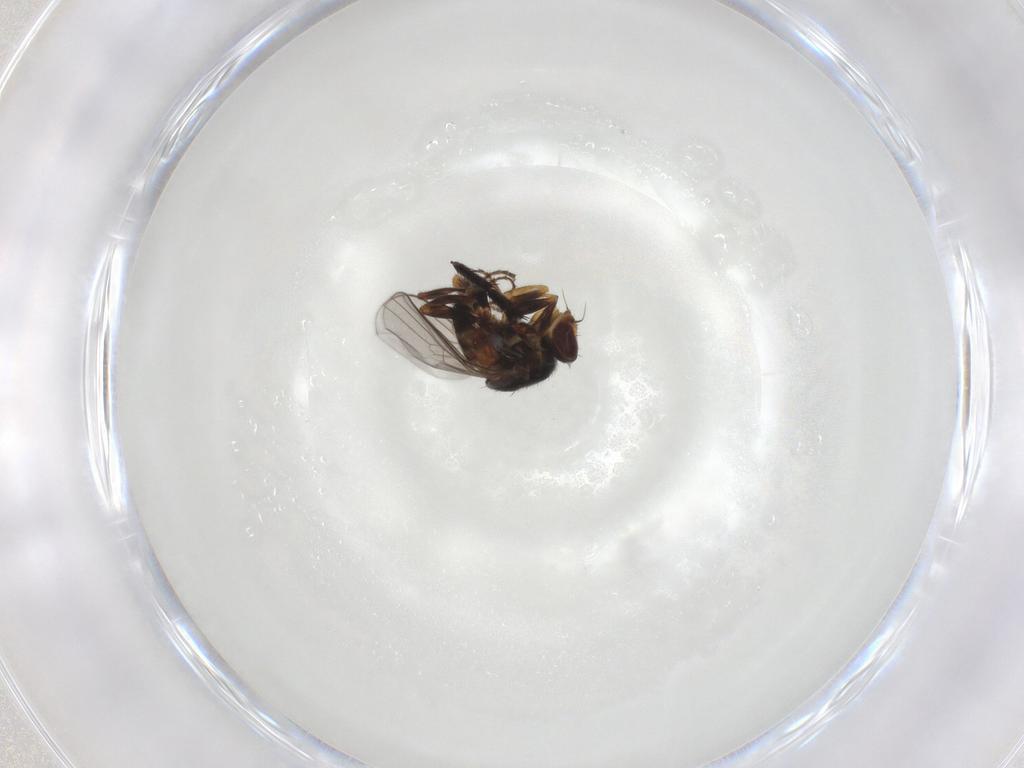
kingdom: Animalia
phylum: Arthropoda
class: Insecta
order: Diptera
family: Chloropidae
